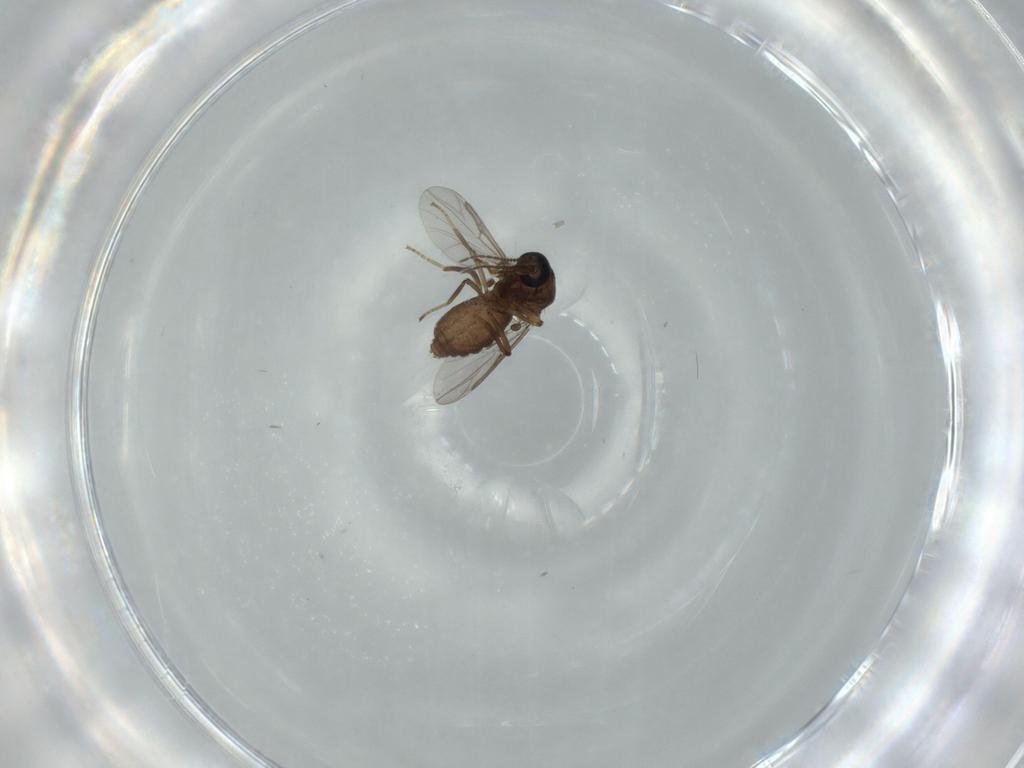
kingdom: Animalia
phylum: Arthropoda
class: Insecta
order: Diptera
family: Ceratopogonidae
